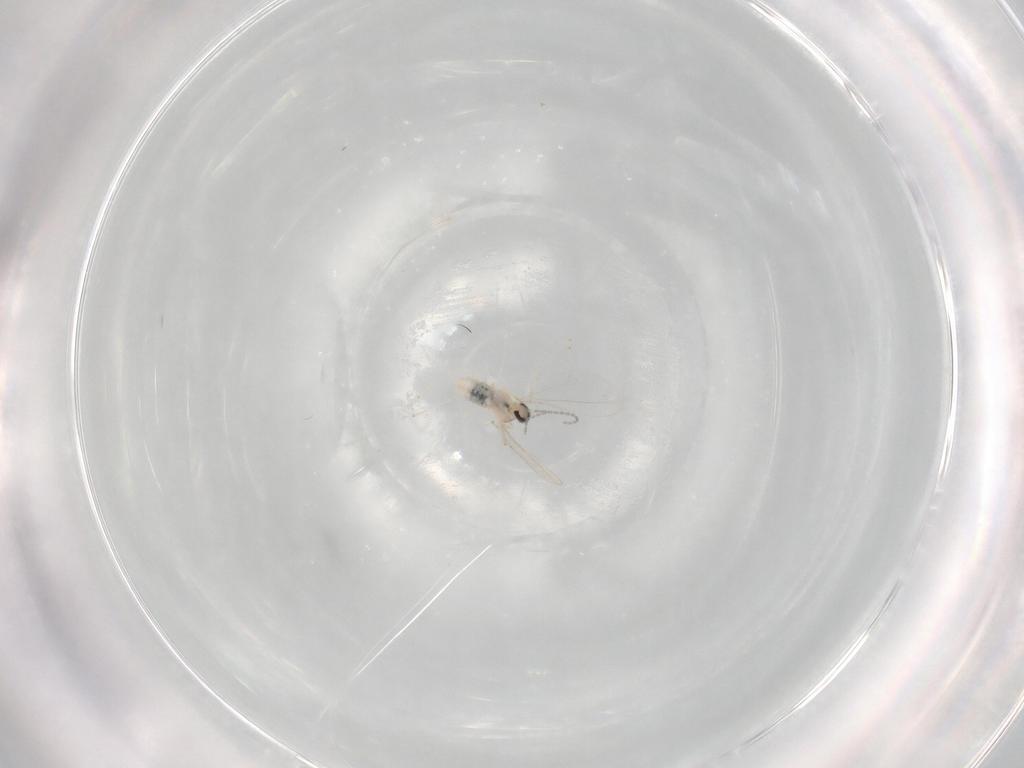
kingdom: Animalia
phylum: Arthropoda
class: Insecta
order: Diptera
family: Cecidomyiidae
